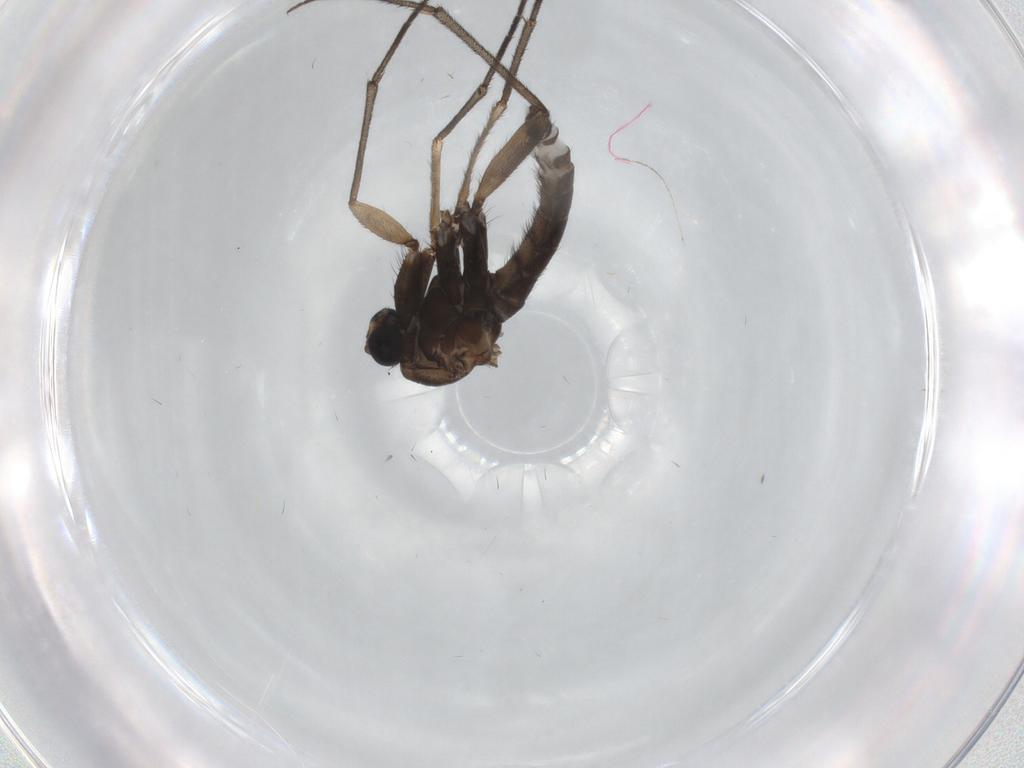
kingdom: Animalia
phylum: Arthropoda
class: Insecta
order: Diptera
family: Sciaridae
